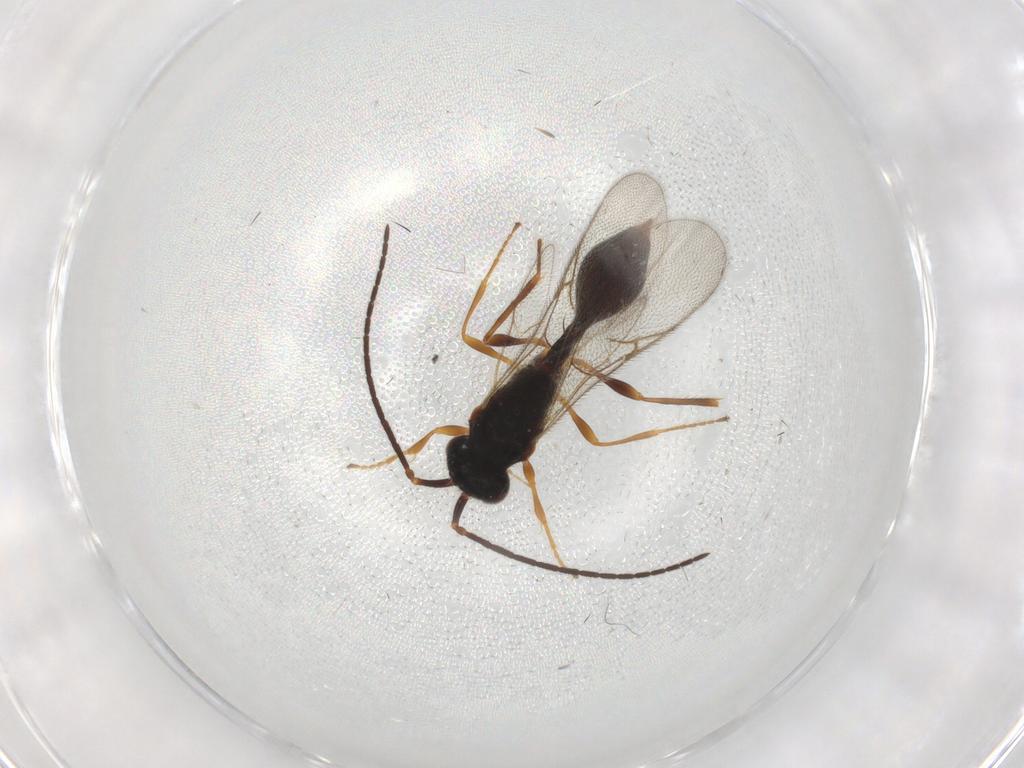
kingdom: Animalia
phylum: Arthropoda
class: Insecta
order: Hymenoptera
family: Formicidae
